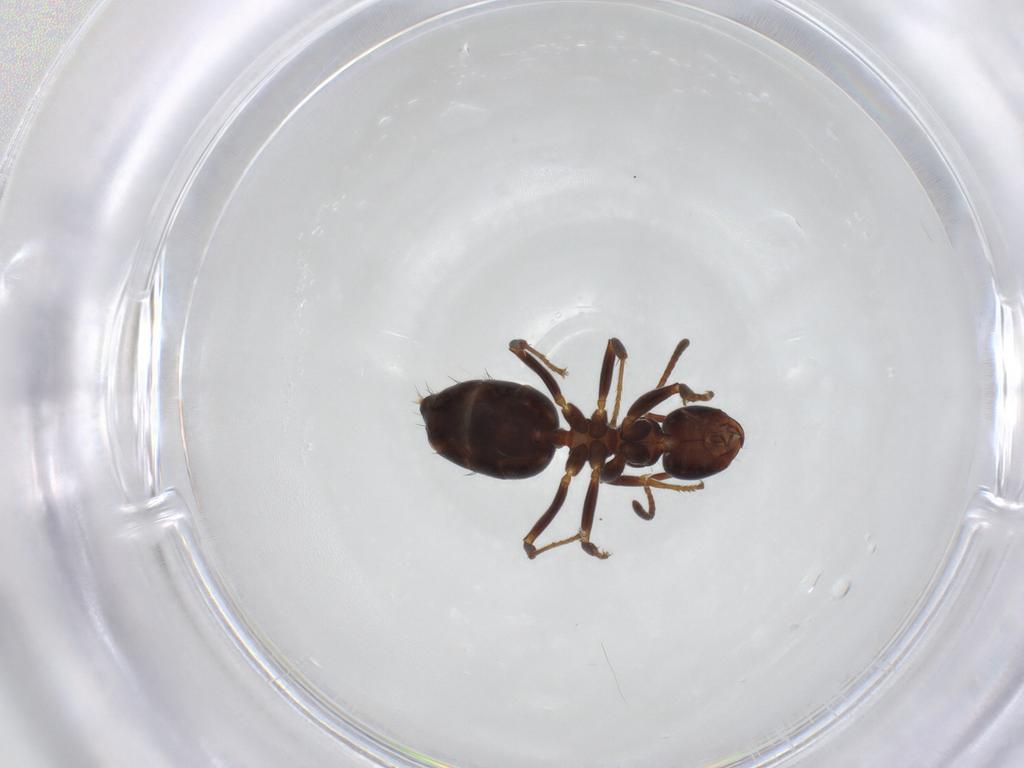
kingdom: Animalia
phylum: Arthropoda
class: Insecta
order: Hymenoptera
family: Formicidae
